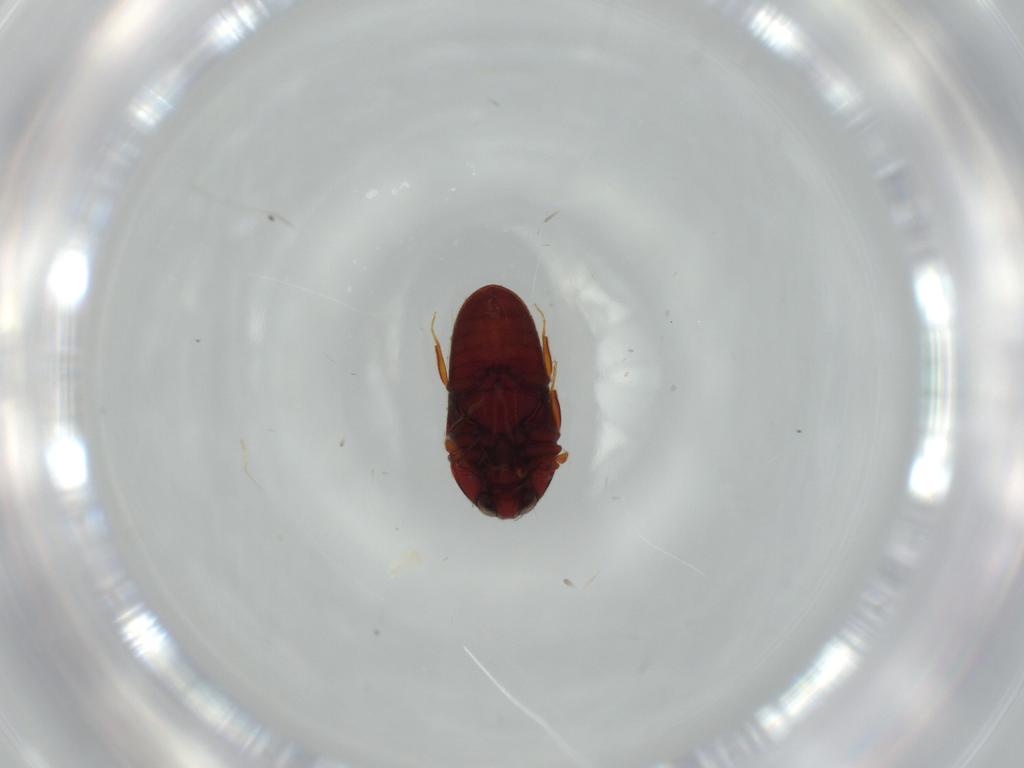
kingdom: Animalia
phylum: Arthropoda
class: Insecta
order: Coleoptera
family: Throscidae
